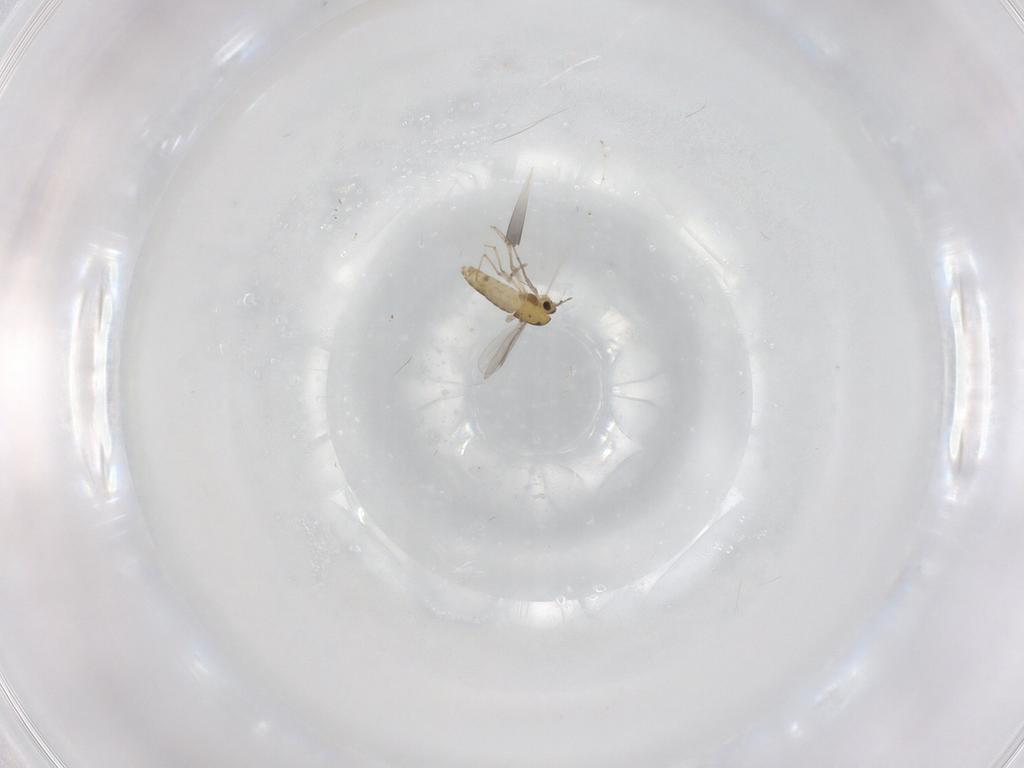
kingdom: Animalia
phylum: Arthropoda
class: Insecta
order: Diptera
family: Chironomidae
